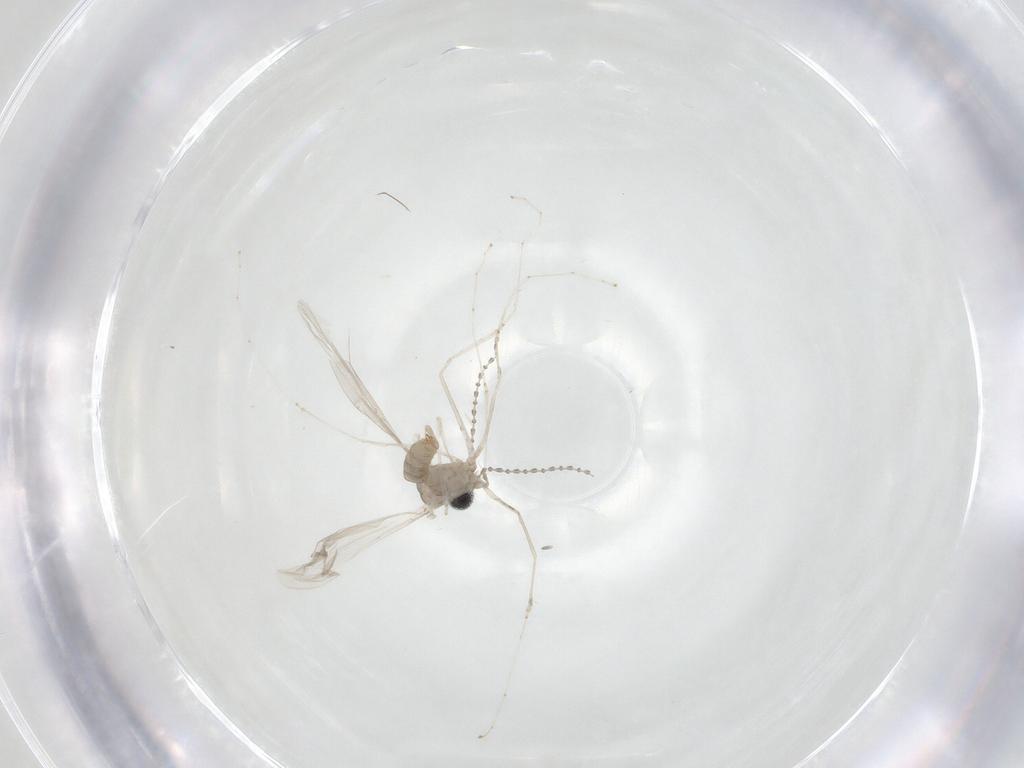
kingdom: Animalia
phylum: Arthropoda
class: Insecta
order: Diptera
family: Cecidomyiidae
